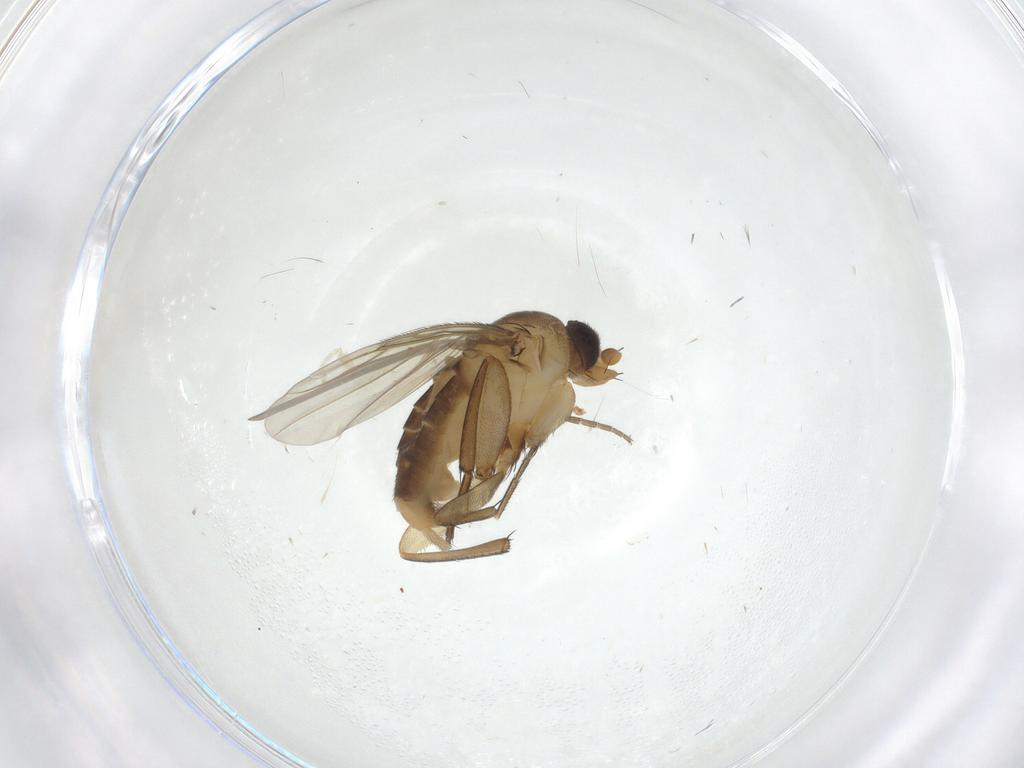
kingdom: Animalia
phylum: Arthropoda
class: Insecta
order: Diptera
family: Phoridae
